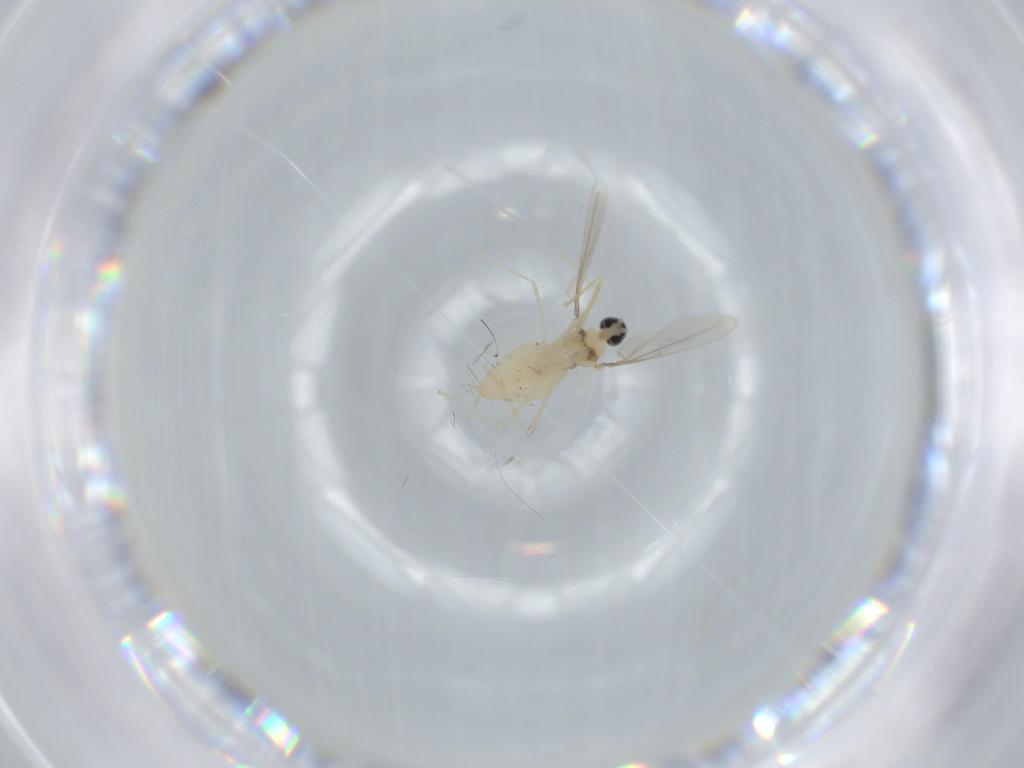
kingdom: Animalia
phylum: Arthropoda
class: Insecta
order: Diptera
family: Cecidomyiidae
